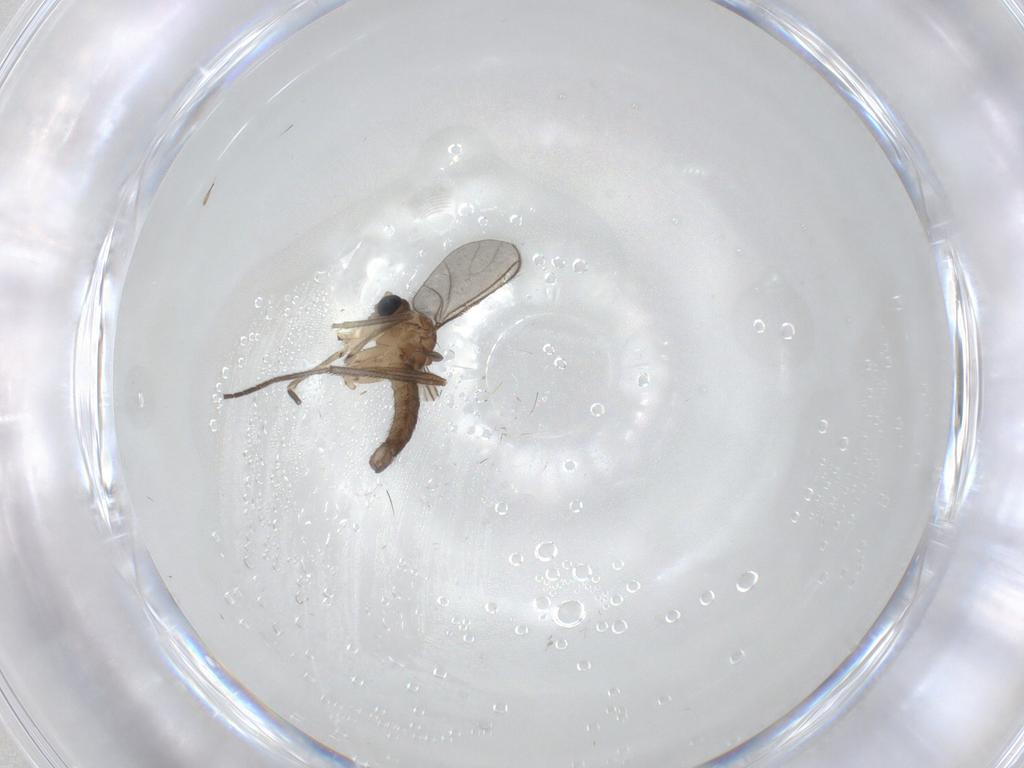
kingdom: Animalia
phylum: Arthropoda
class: Insecta
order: Diptera
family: Sciaridae
